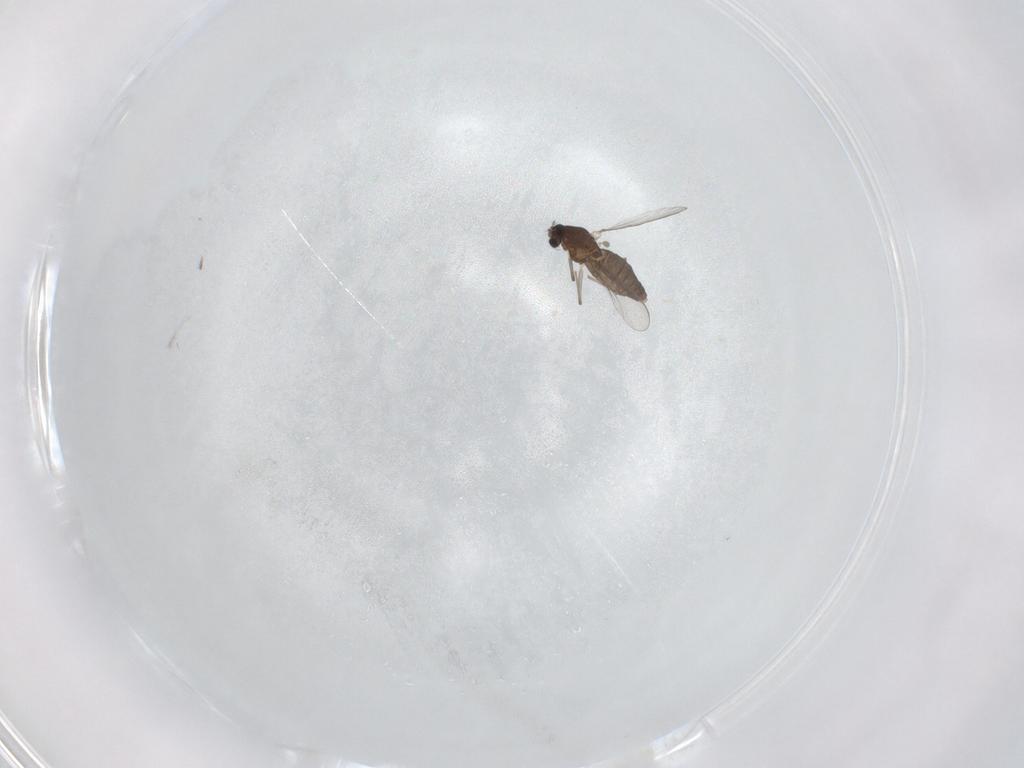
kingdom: Animalia
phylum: Arthropoda
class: Insecta
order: Diptera
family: Chironomidae
